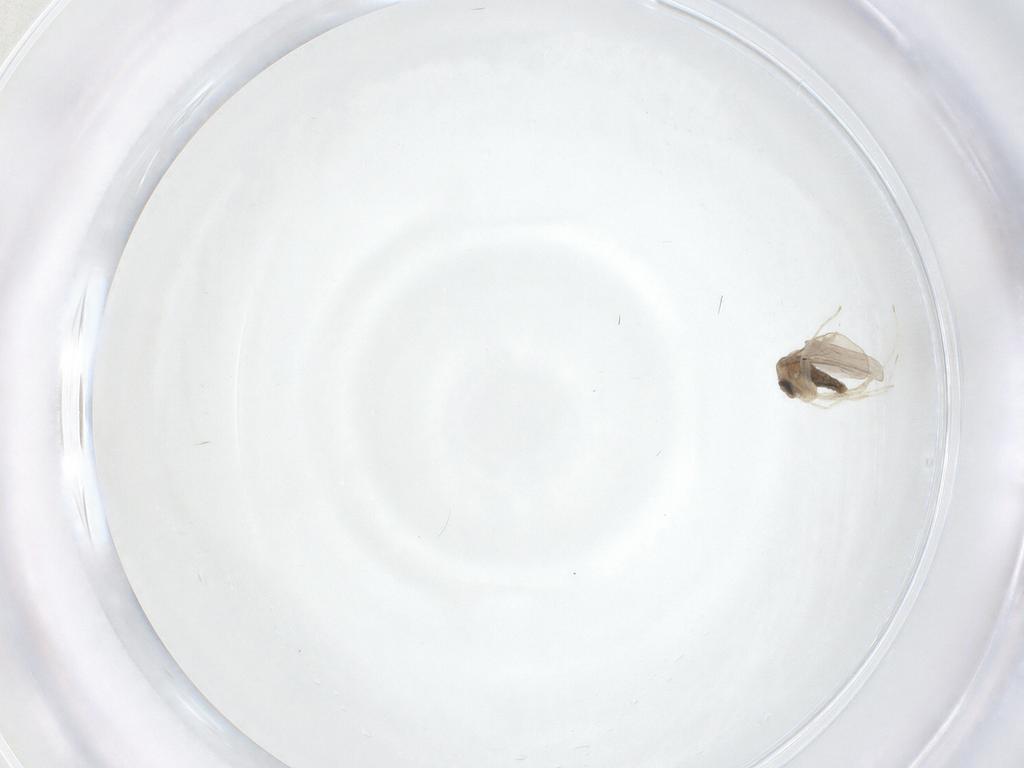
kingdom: Animalia
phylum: Arthropoda
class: Insecta
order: Diptera
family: Cecidomyiidae
